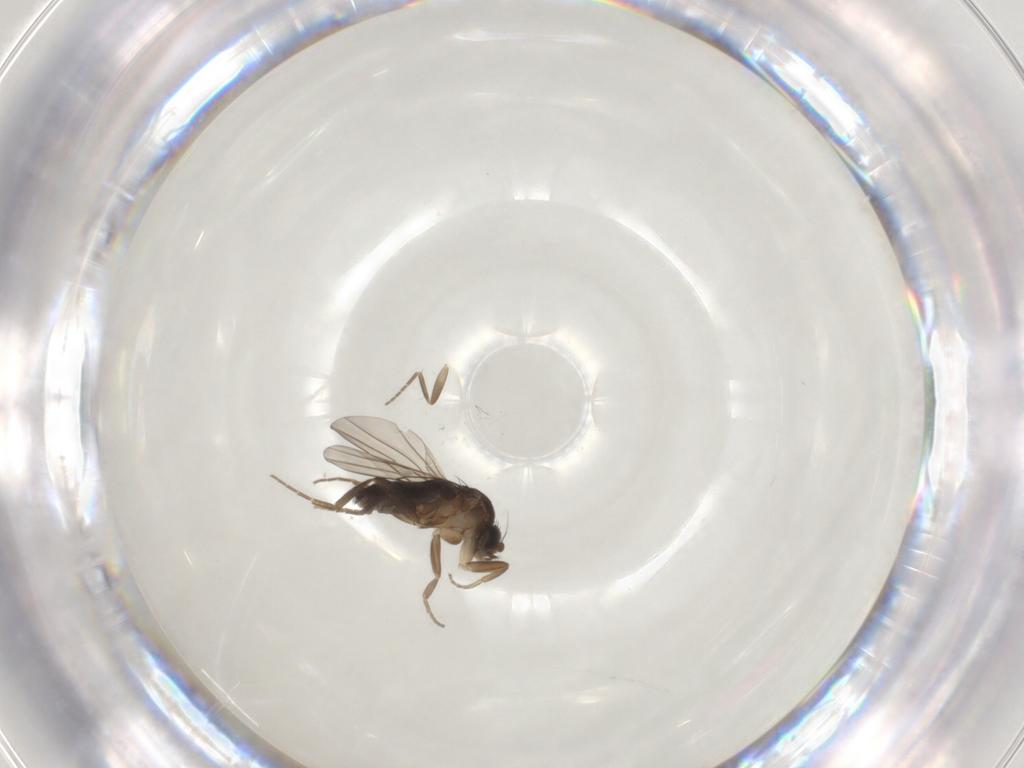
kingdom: Animalia
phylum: Arthropoda
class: Insecta
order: Diptera
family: Phoridae
